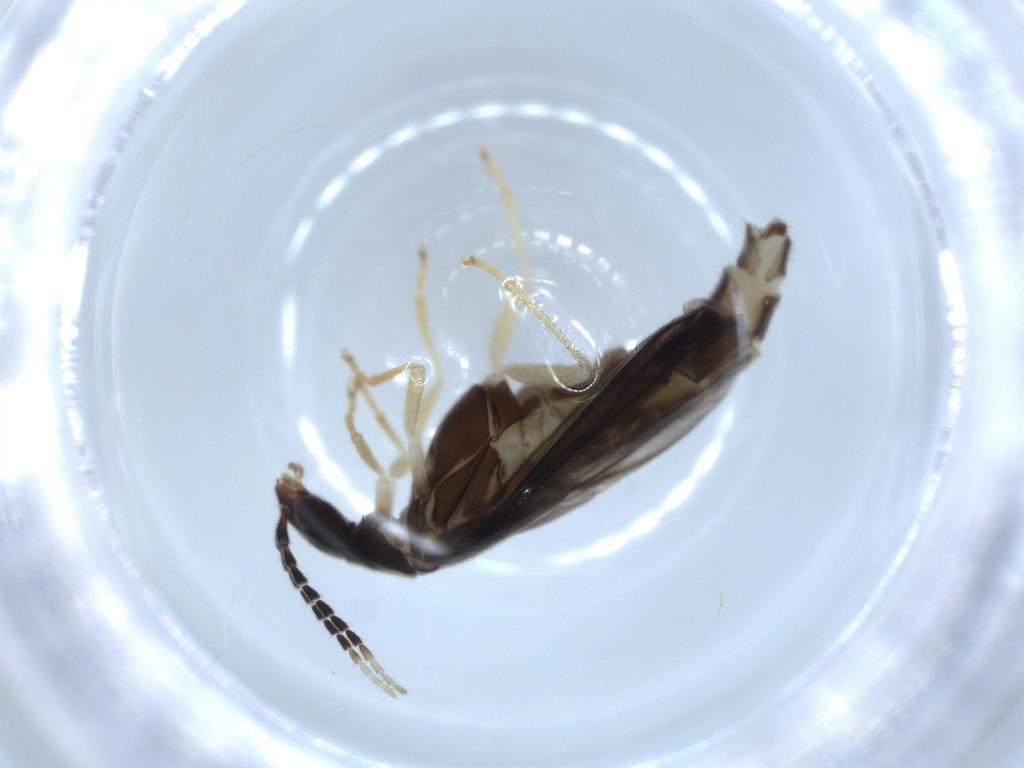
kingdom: Animalia
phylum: Arthropoda
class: Insecta
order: Coleoptera
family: Cantharidae
